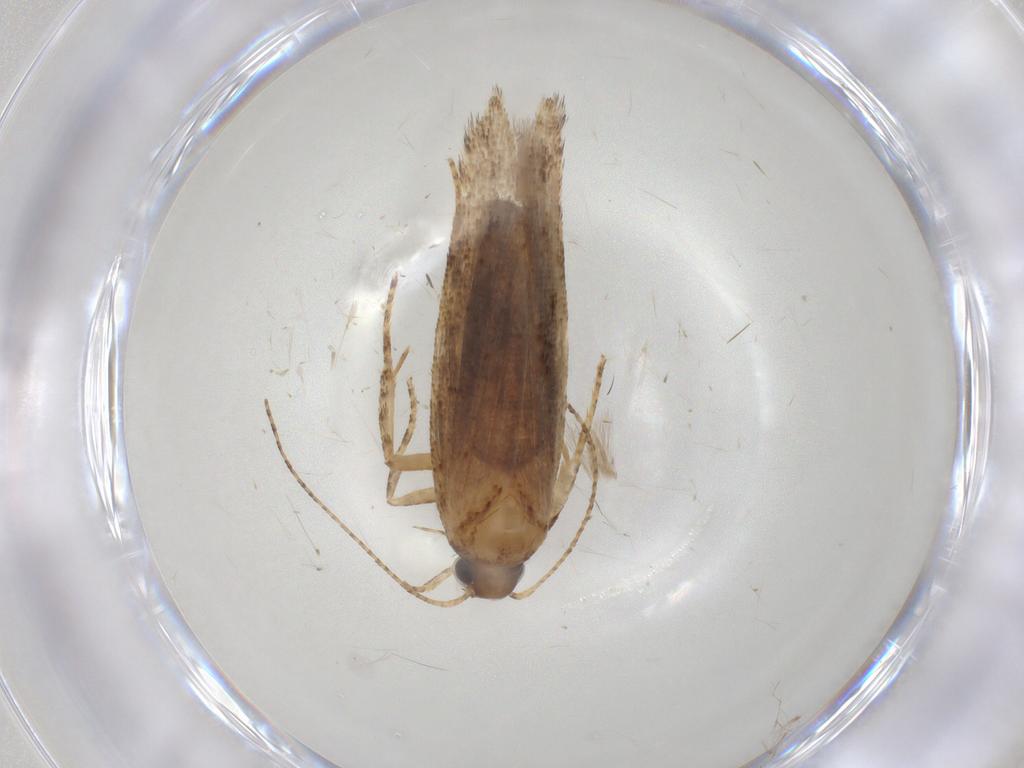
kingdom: Animalia
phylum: Arthropoda
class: Insecta
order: Lepidoptera
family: Gelechiidae
